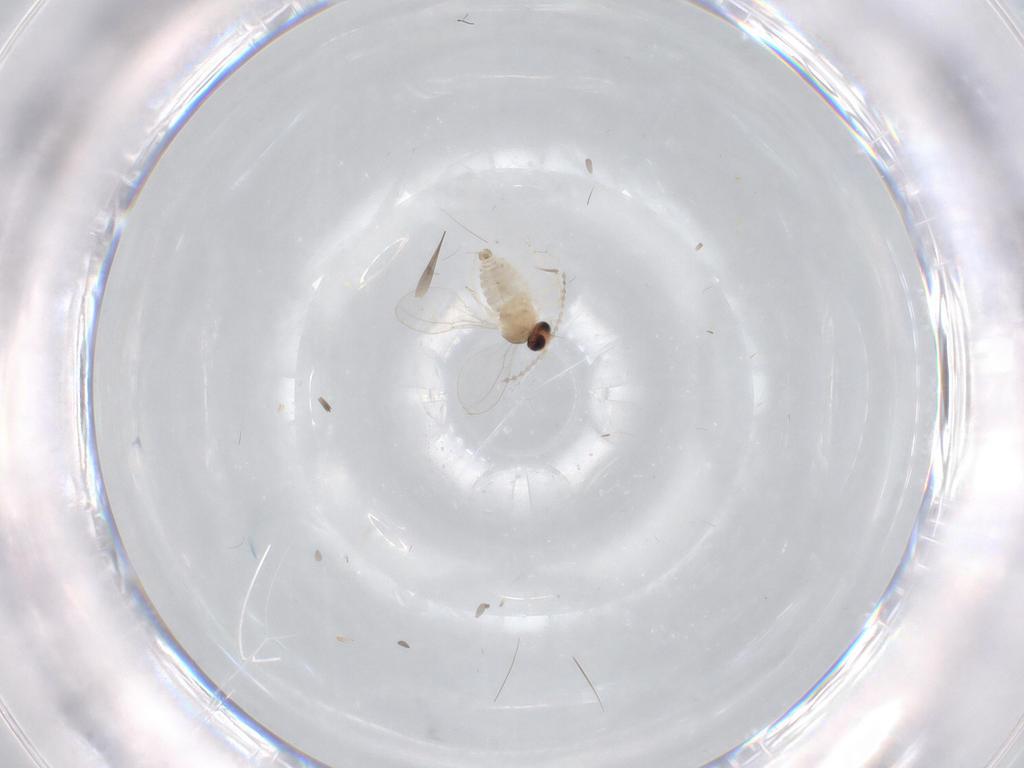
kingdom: Animalia
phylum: Arthropoda
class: Insecta
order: Diptera
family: Cecidomyiidae
